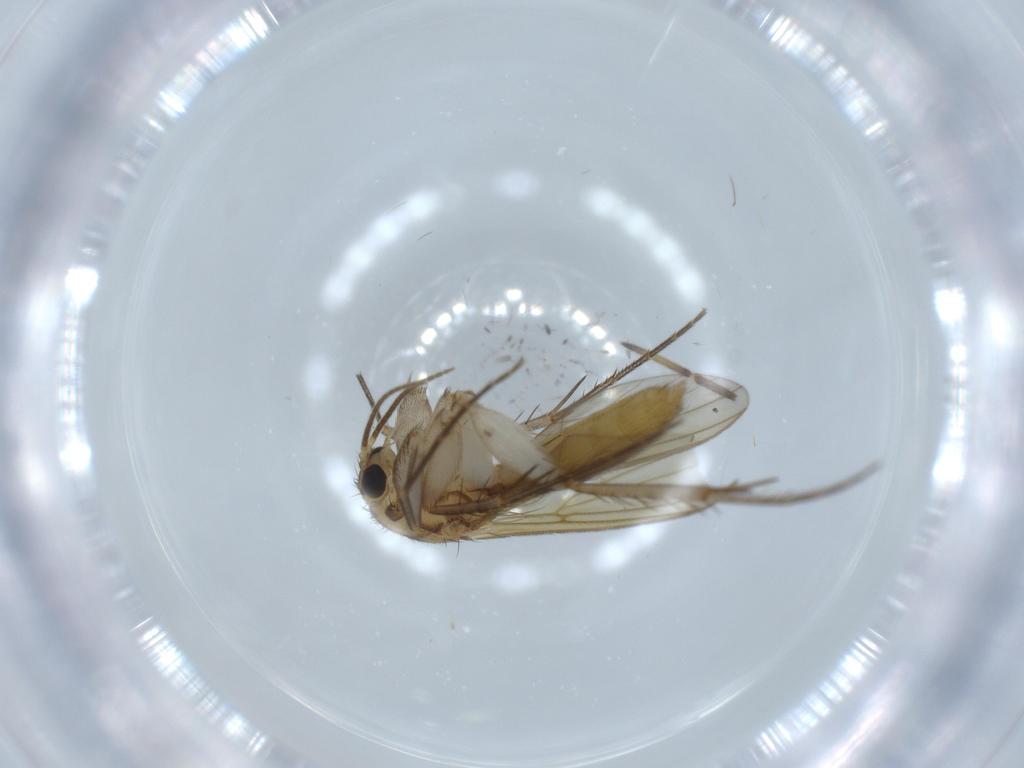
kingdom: Animalia
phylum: Arthropoda
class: Insecta
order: Diptera
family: Mycetophilidae
